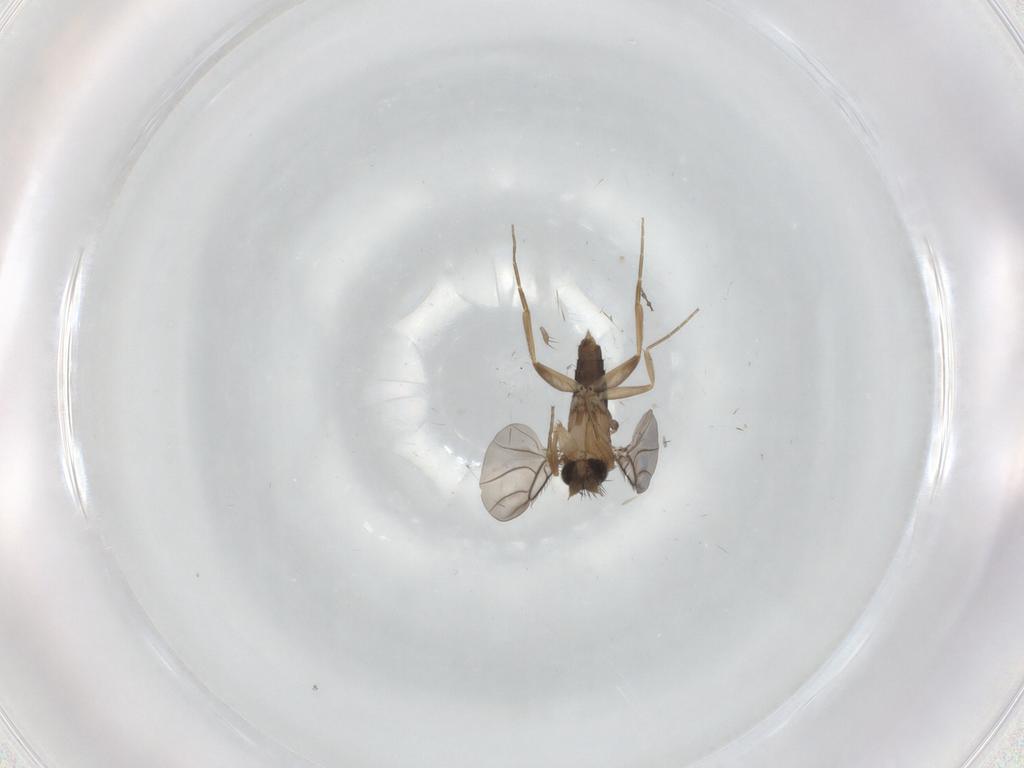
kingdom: Animalia
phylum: Arthropoda
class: Insecta
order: Diptera
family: Phoridae
